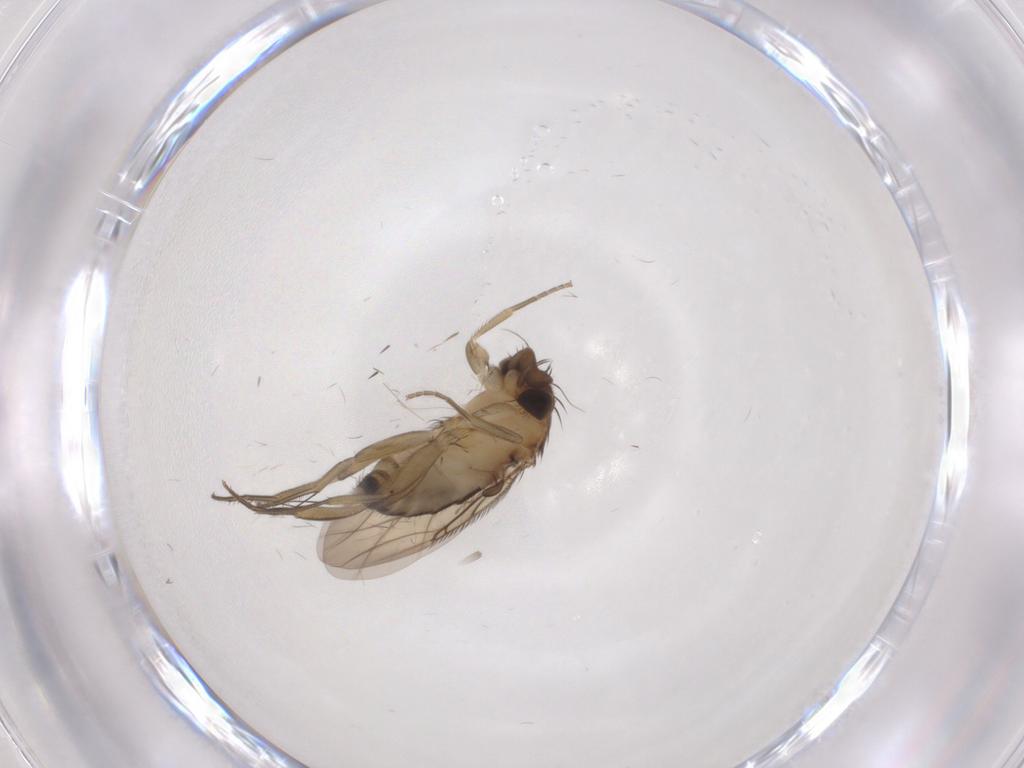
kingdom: Animalia
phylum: Arthropoda
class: Insecta
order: Diptera
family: Phoridae
